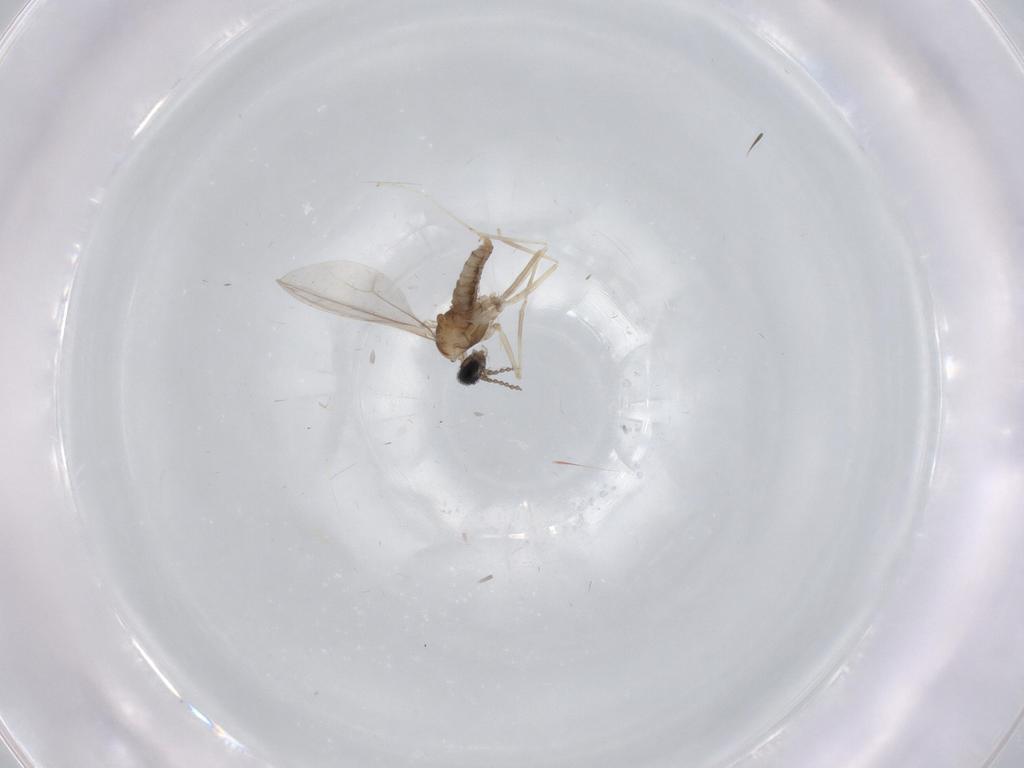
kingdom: Animalia
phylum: Arthropoda
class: Insecta
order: Diptera
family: Cecidomyiidae
